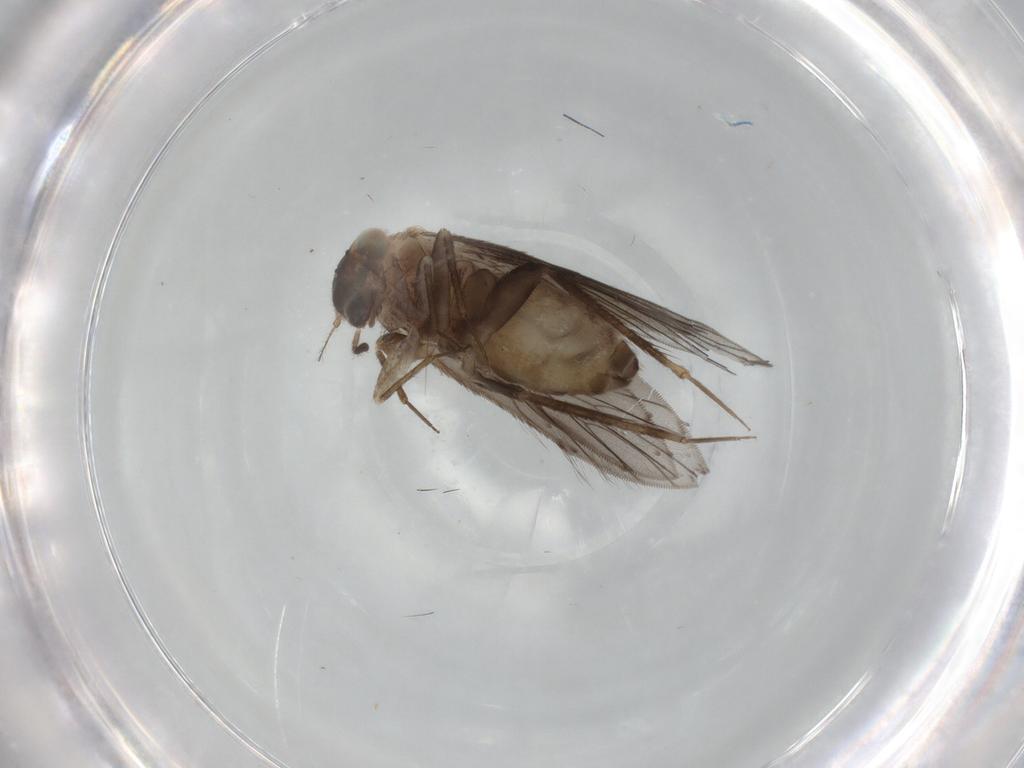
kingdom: Animalia
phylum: Arthropoda
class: Insecta
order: Psocodea
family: Lepidopsocidae
